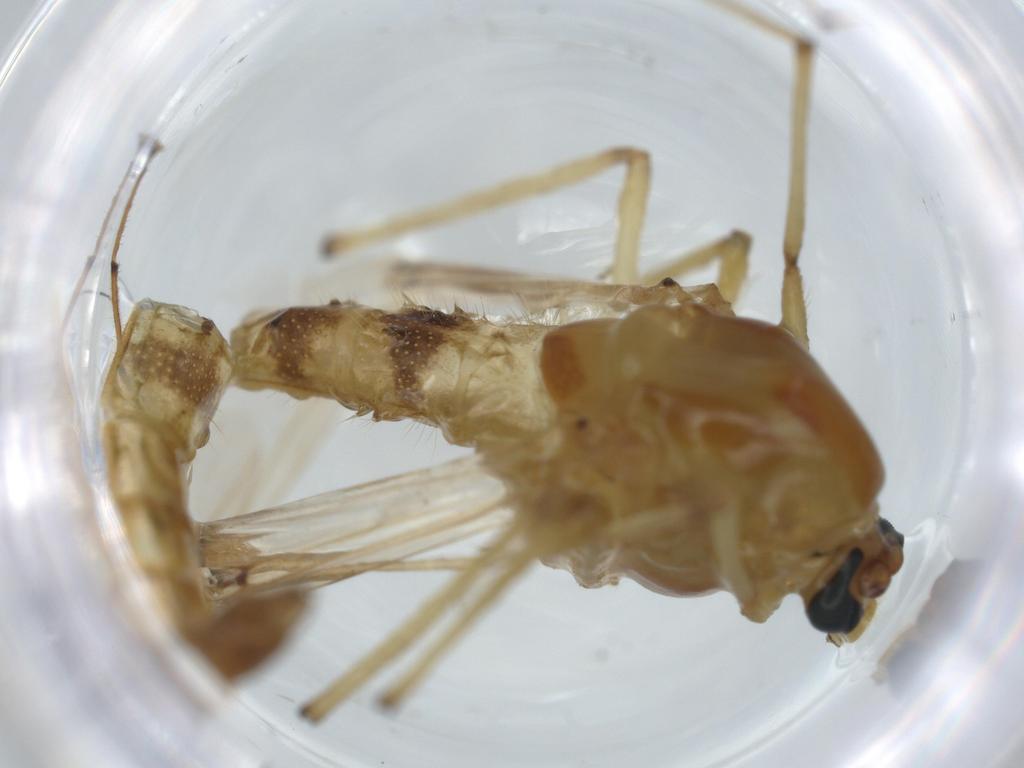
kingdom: Animalia
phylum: Arthropoda
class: Insecta
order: Diptera
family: Chironomidae
